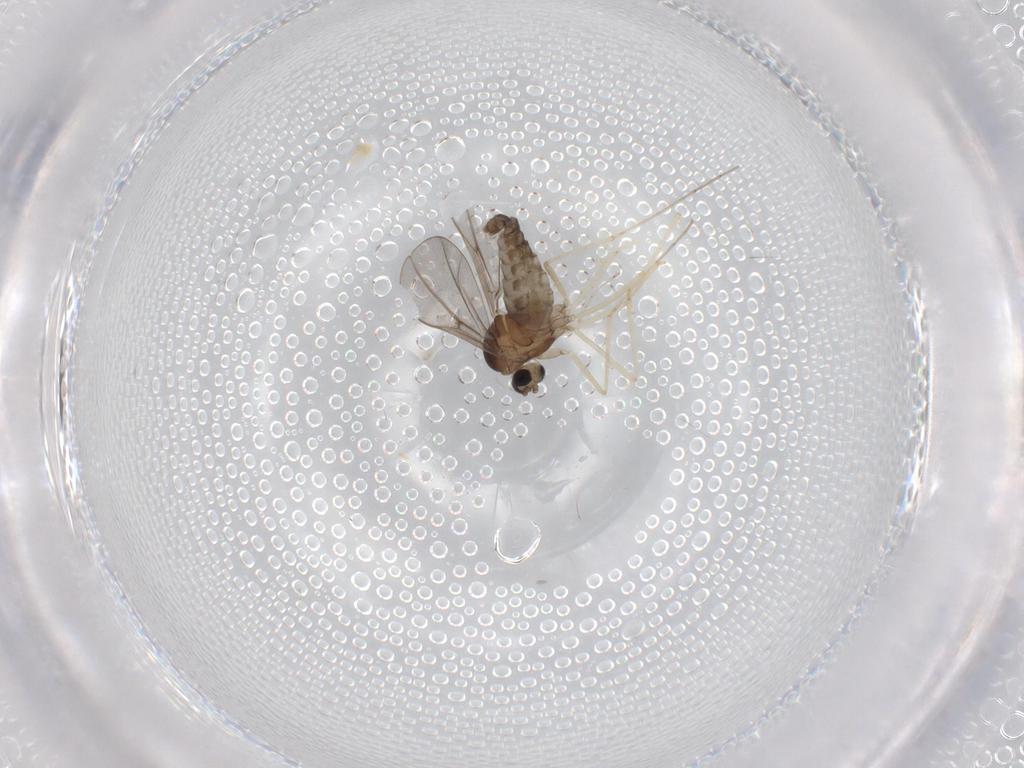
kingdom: Animalia
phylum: Arthropoda
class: Insecta
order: Diptera
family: Cecidomyiidae
